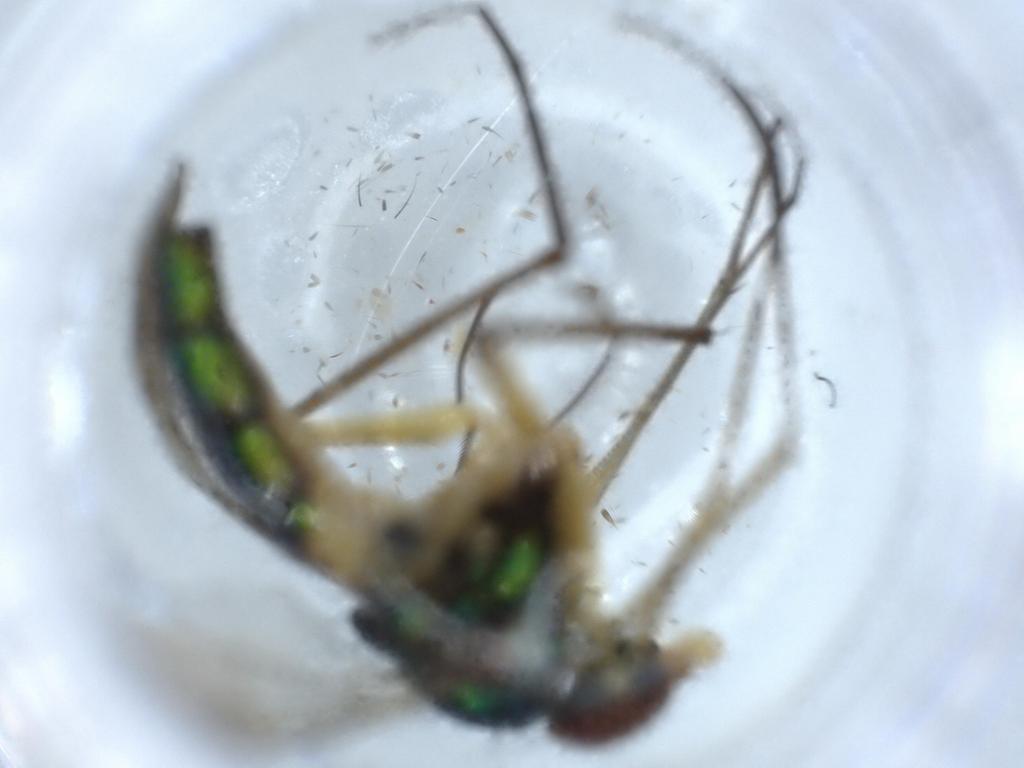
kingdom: Animalia
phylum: Arthropoda
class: Insecta
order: Diptera
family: Dolichopodidae
